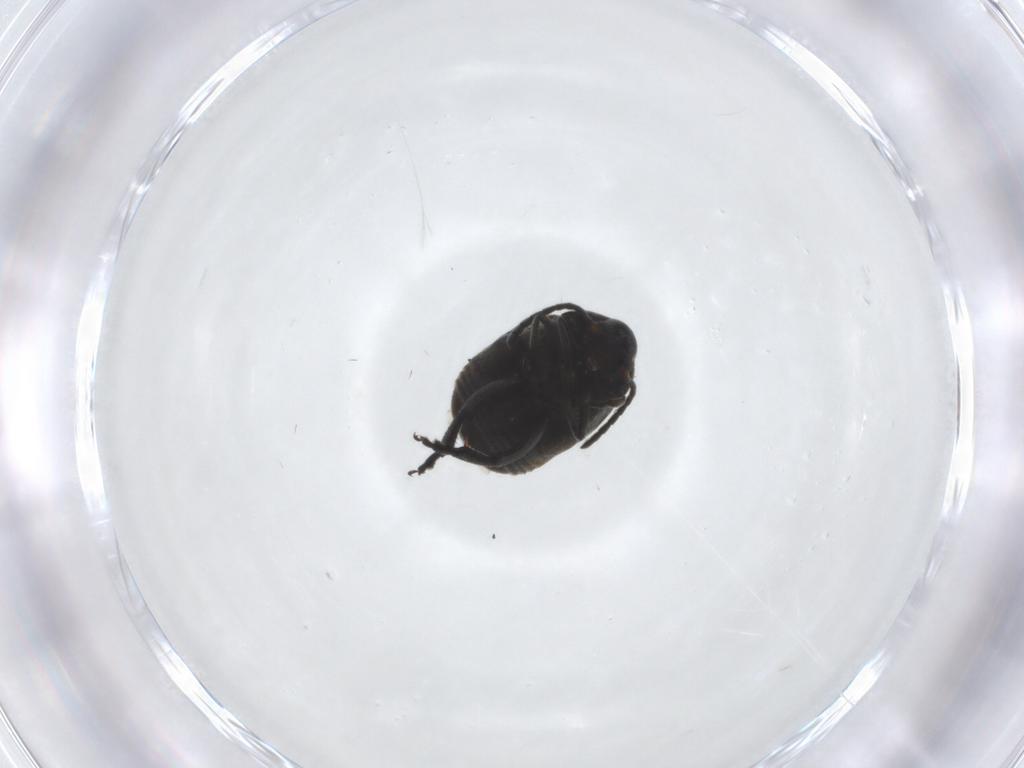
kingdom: Animalia
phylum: Arthropoda
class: Insecta
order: Coleoptera
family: Chrysomelidae
